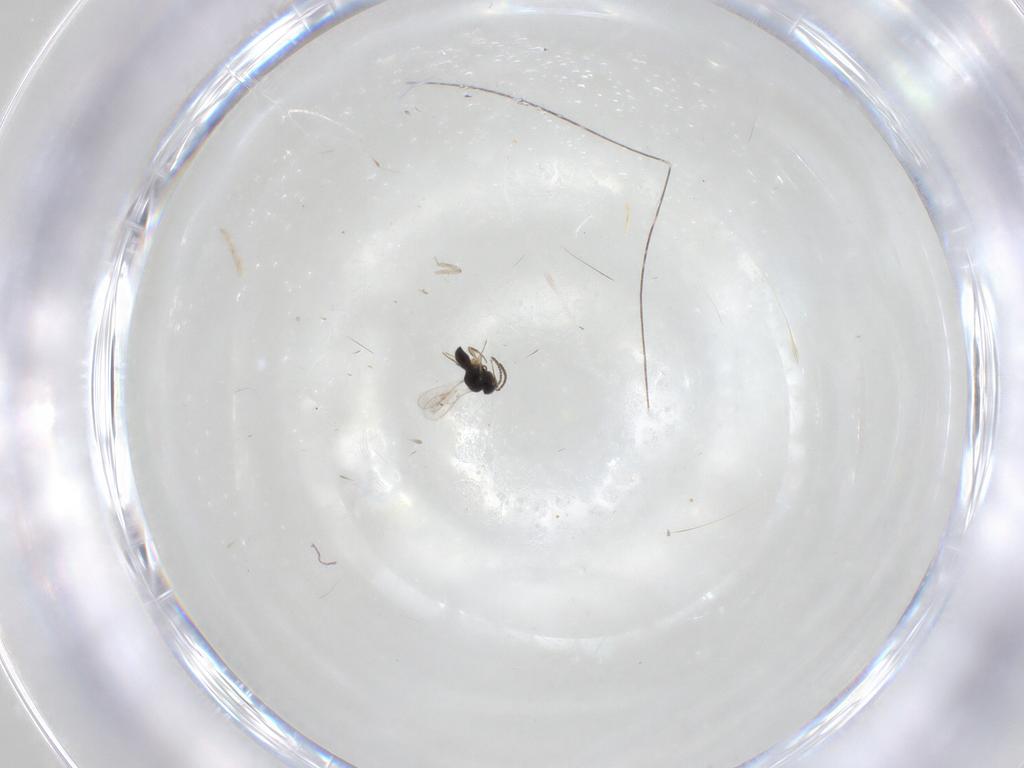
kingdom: Animalia
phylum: Arthropoda
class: Insecta
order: Hymenoptera
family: Scelionidae
